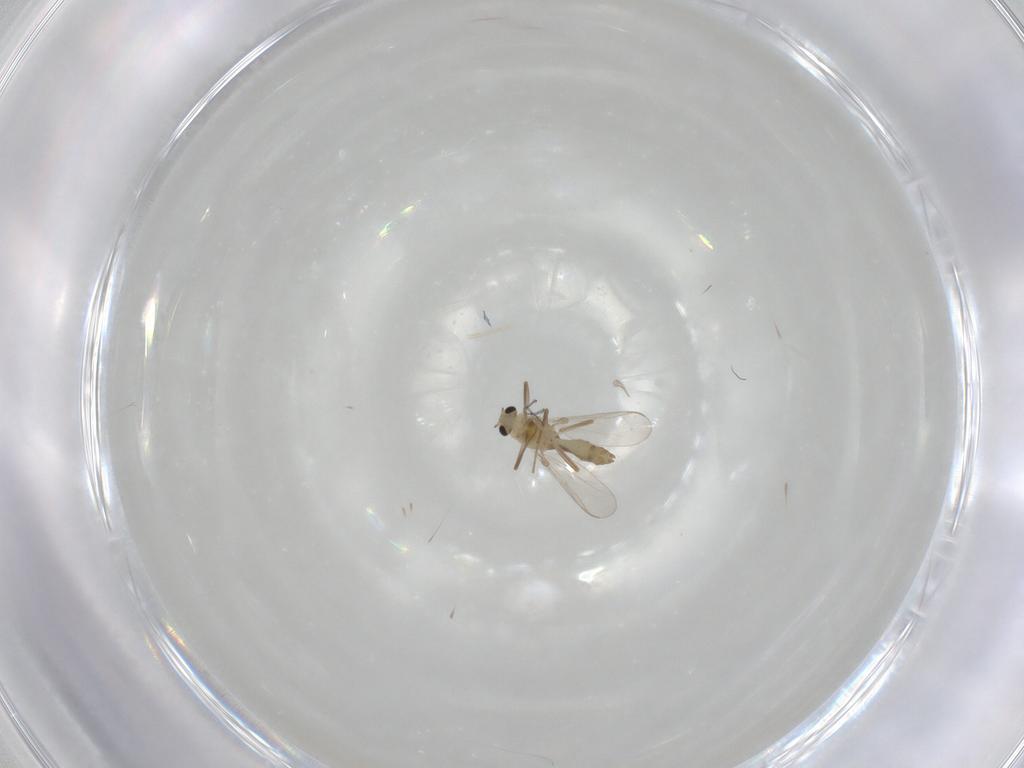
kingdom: Animalia
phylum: Arthropoda
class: Insecta
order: Diptera
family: Chironomidae
